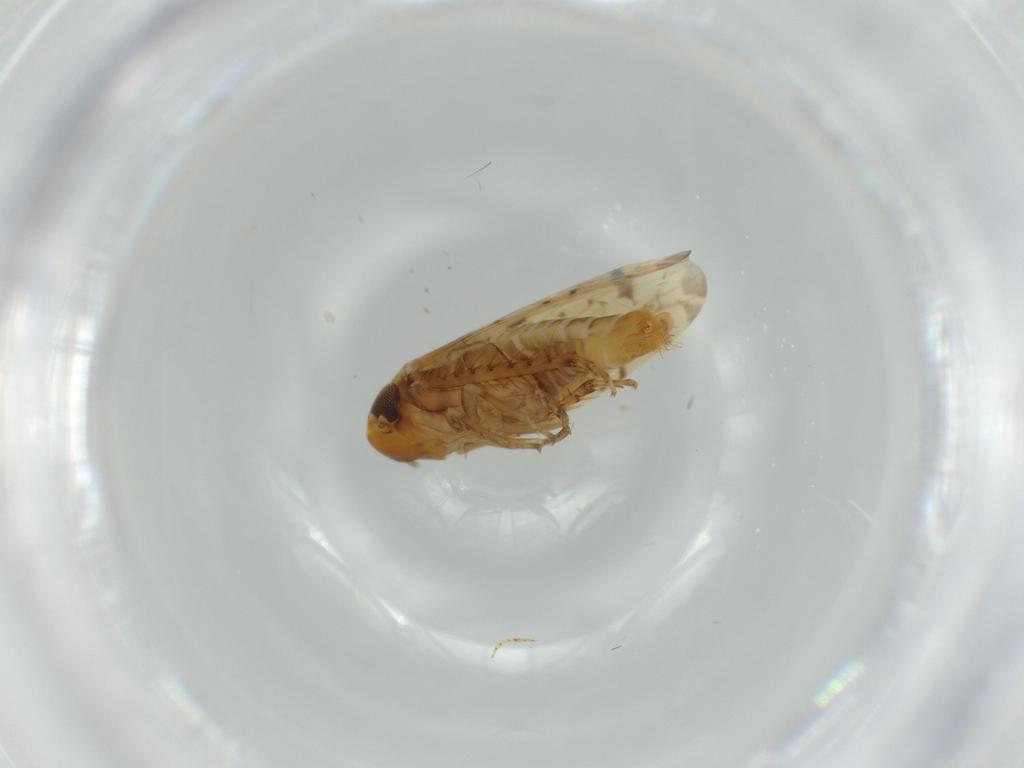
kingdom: Animalia
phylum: Arthropoda
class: Insecta
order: Hemiptera
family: Cicadellidae
